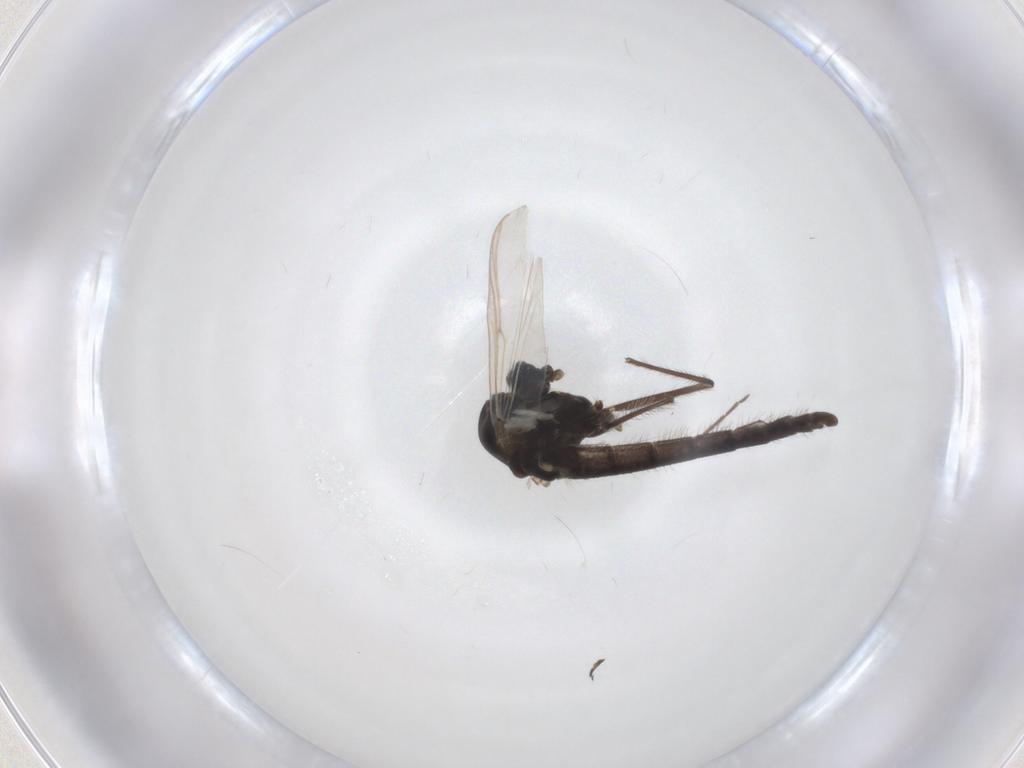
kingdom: Animalia
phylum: Arthropoda
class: Insecta
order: Diptera
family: Chironomidae
